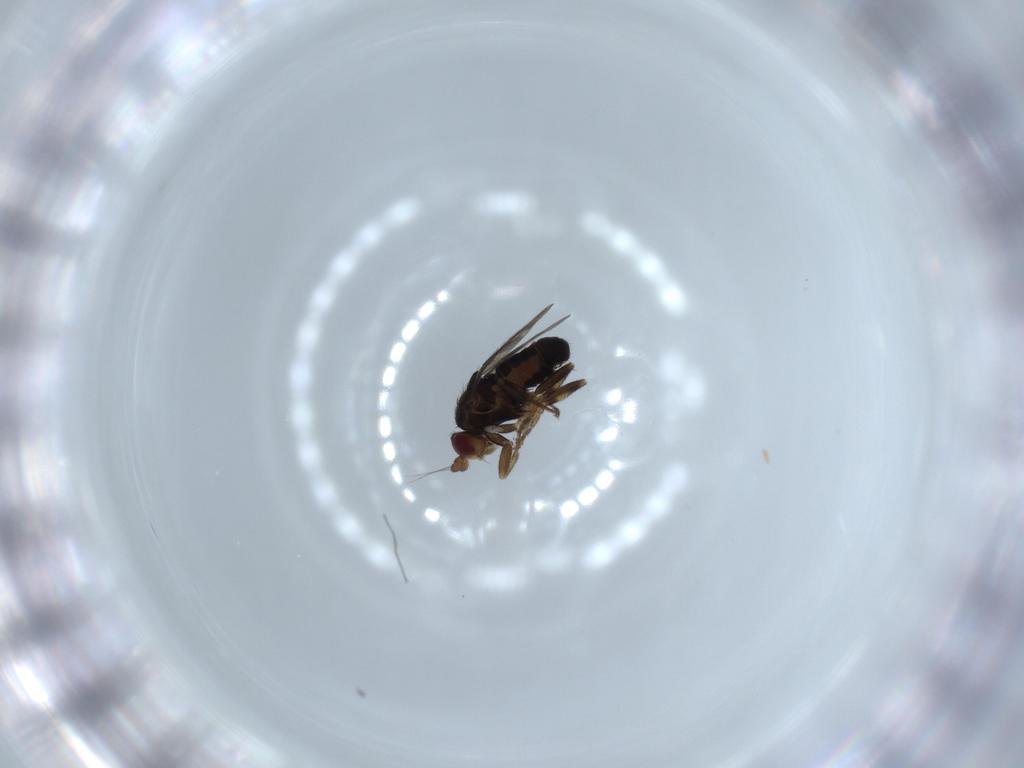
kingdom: Animalia
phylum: Arthropoda
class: Insecta
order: Diptera
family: Sphaeroceridae
